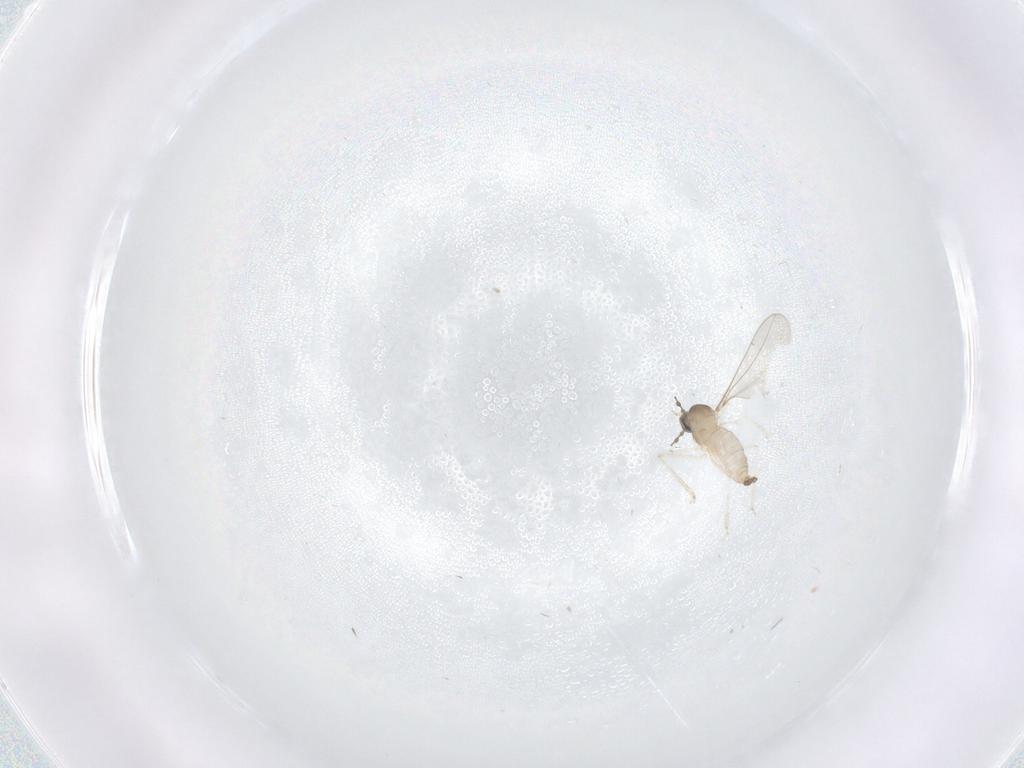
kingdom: Animalia
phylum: Arthropoda
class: Insecta
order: Diptera
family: Cecidomyiidae
